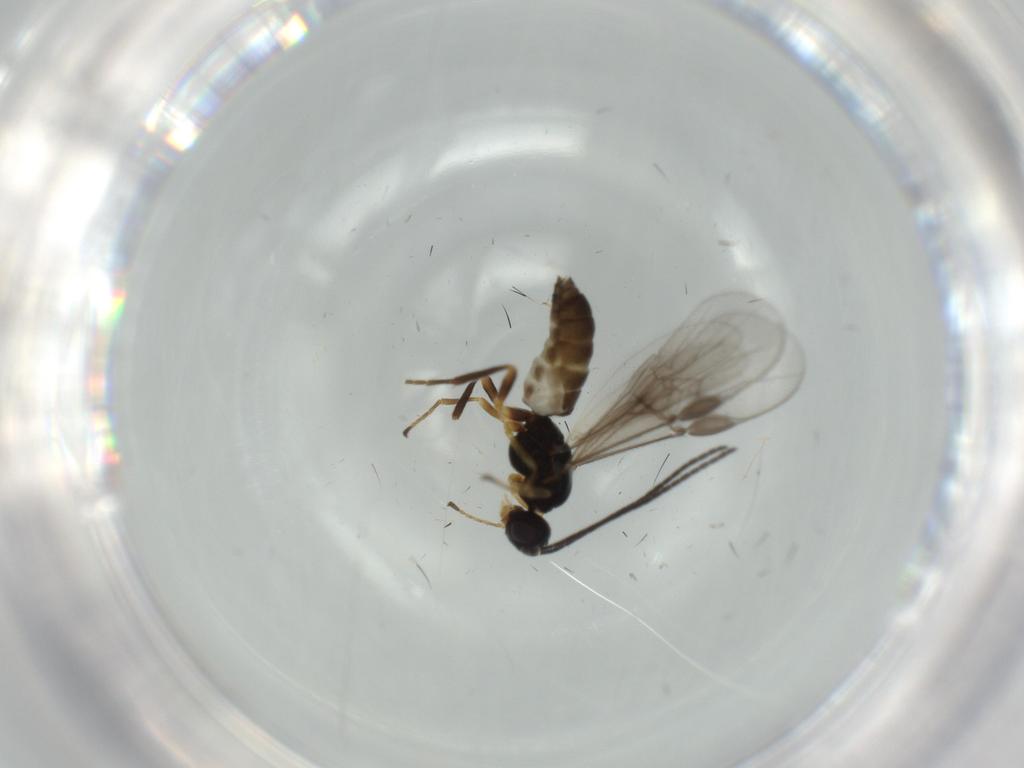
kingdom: Animalia
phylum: Arthropoda
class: Insecta
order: Hymenoptera
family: Braconidae
